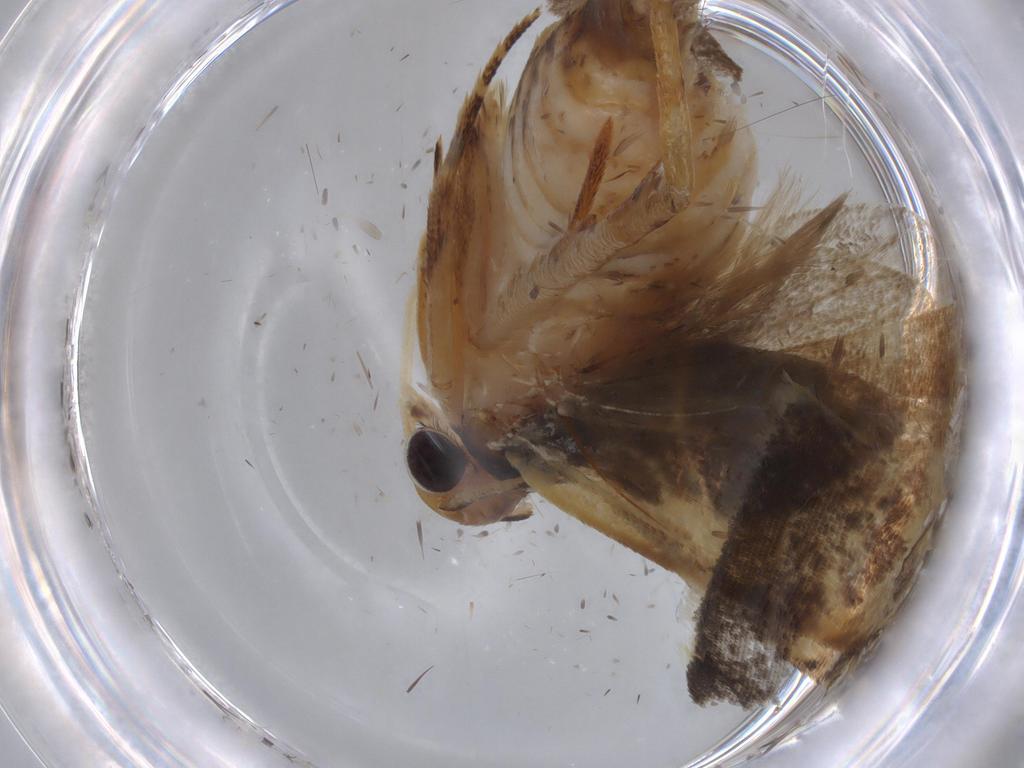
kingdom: Animalia
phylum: Arthropoda
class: Insecta
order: Lepidoptera
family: Gelechiidae
